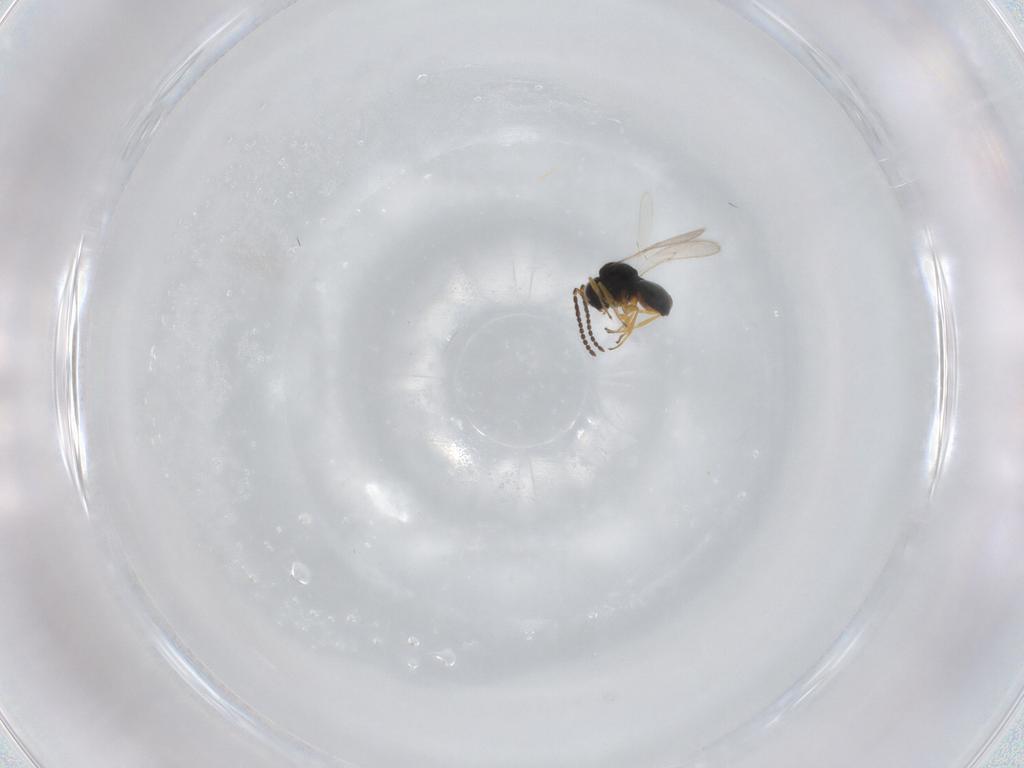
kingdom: Animalia
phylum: Arthropoda
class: Insecta
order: Hymenoptera
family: Scelionidae
